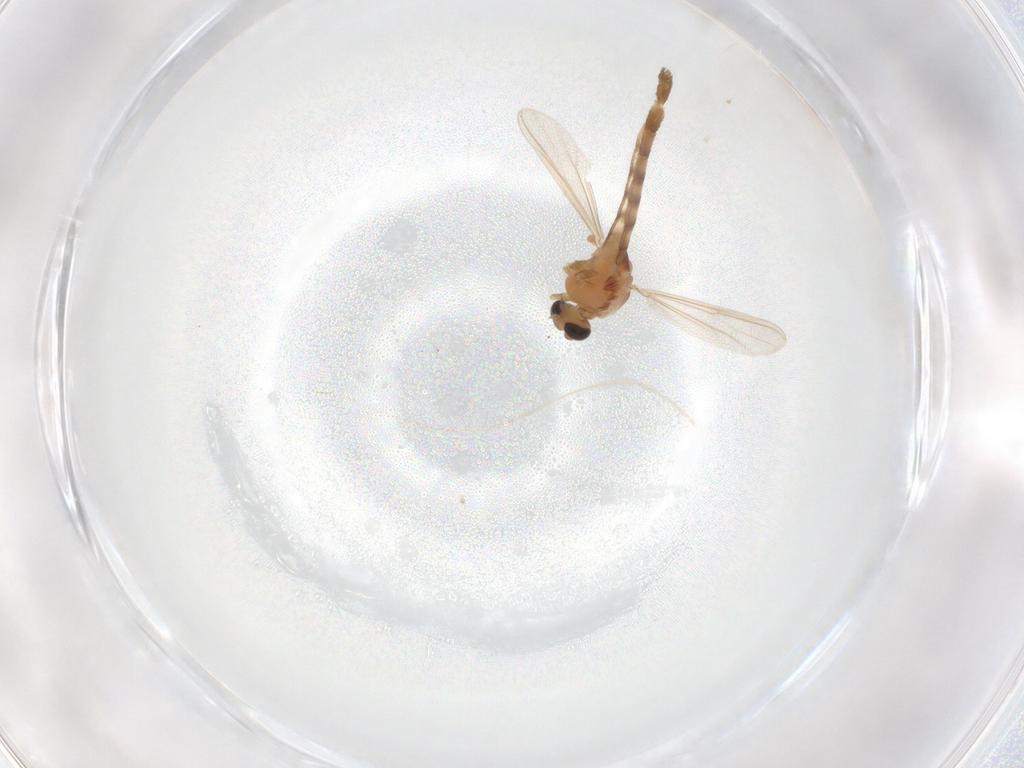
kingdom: Animalia
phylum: Arthropoda
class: Insecta
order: Diptera
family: Chironomidae
